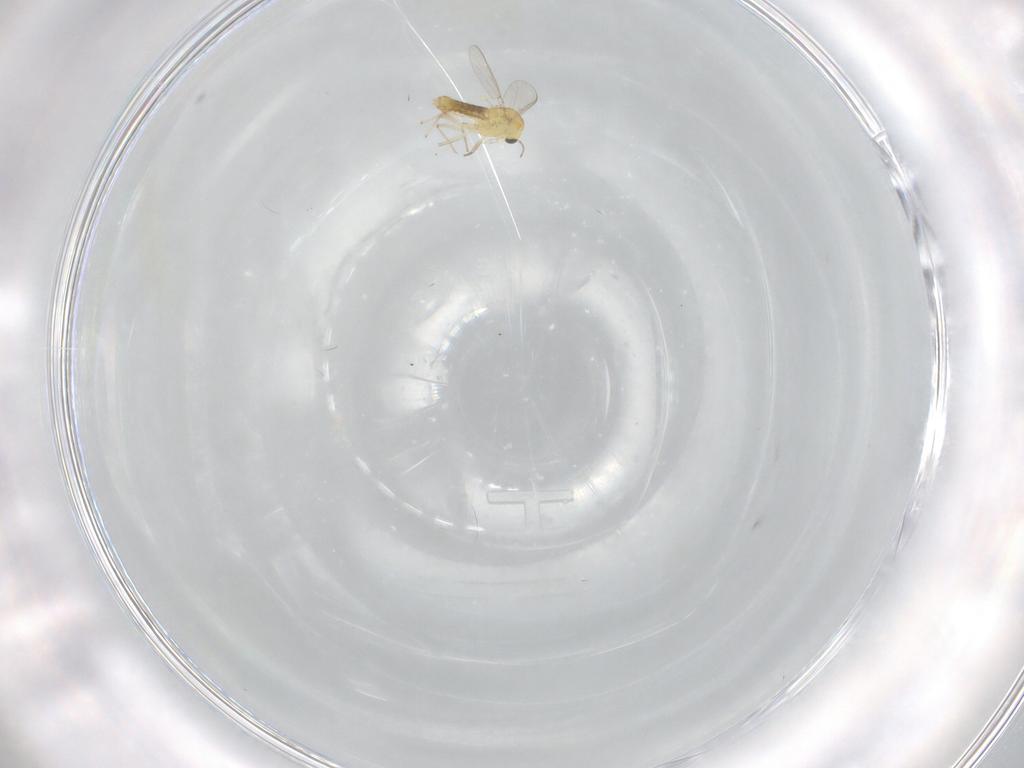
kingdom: Animalia
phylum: Arthropoda
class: Insecta
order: Diptera
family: Chironomidae
